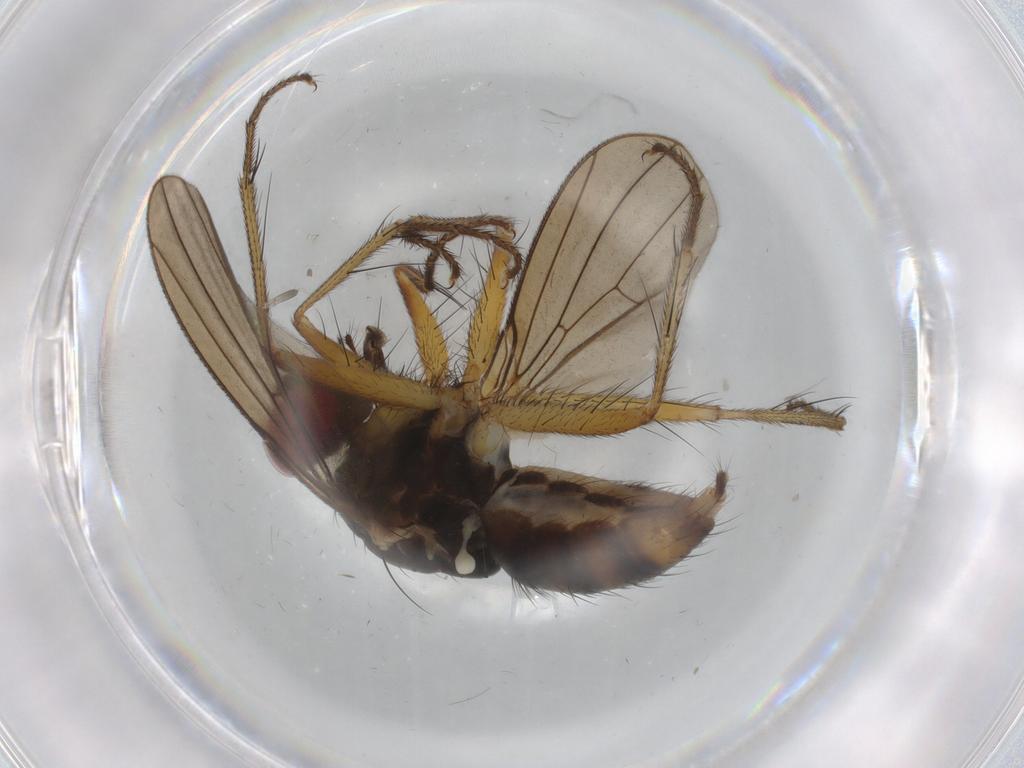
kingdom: Animalia
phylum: Arthropoda
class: Insecta
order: Diptera
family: Anthomyiidae
